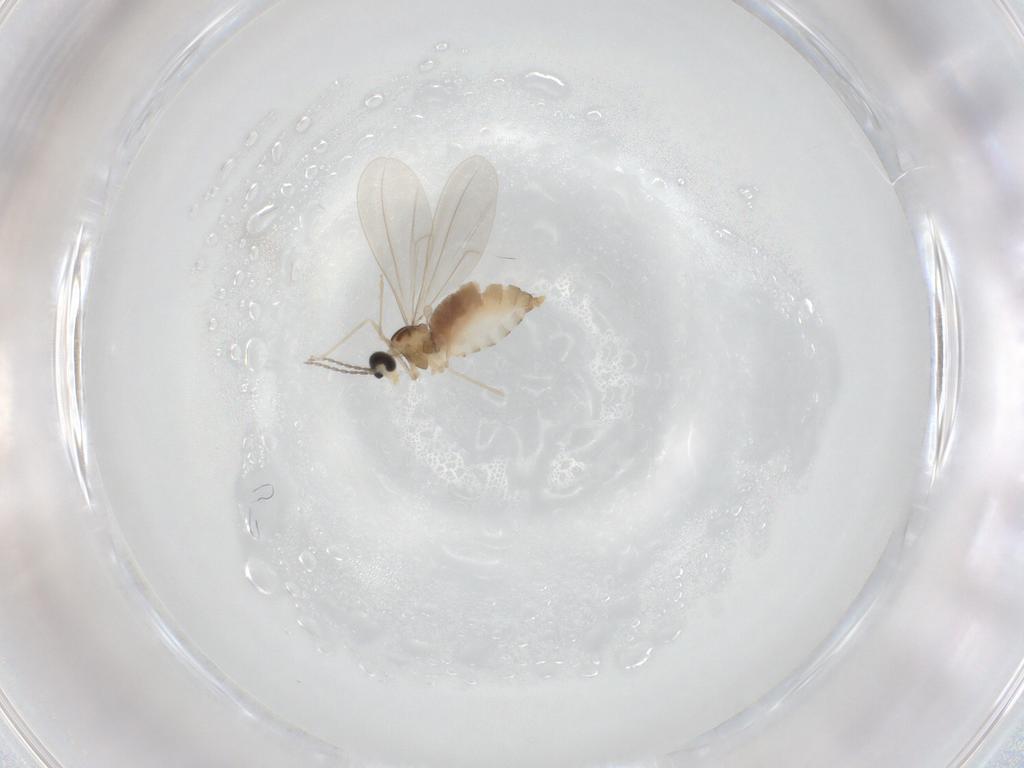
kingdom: Animalia
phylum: Arthropoda
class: Insecta
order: Diptera
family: Cecidomyiidae
